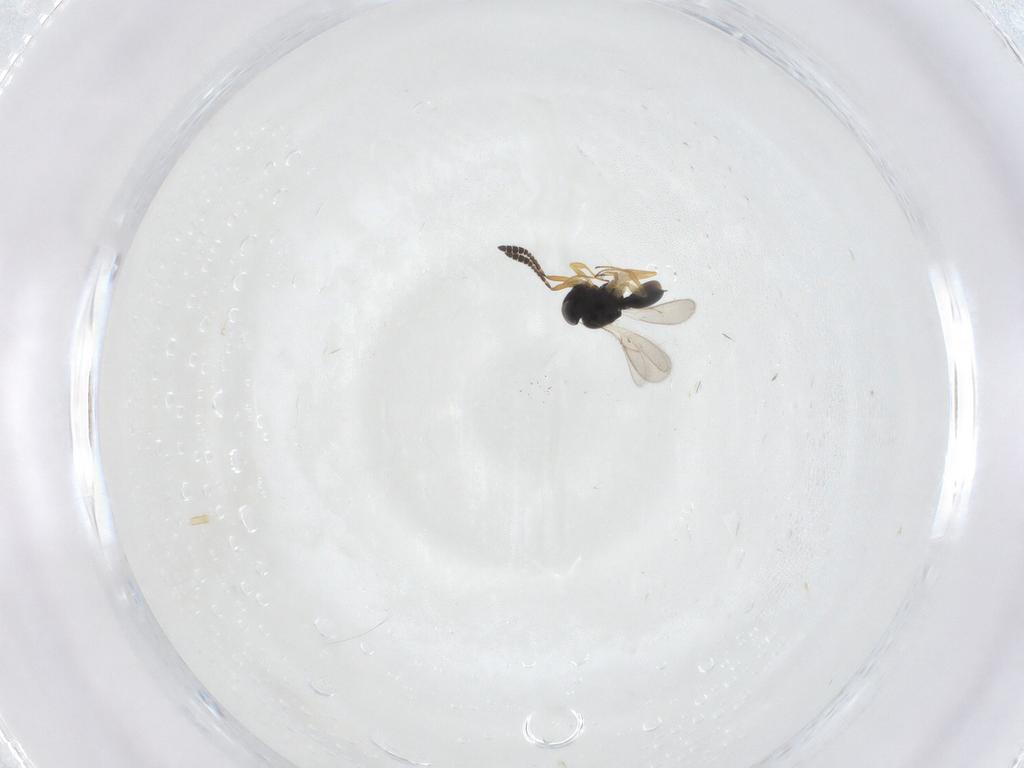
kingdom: Animalia
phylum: Arthropoda
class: Insecta
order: Hymenoptera
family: Scelionidae
